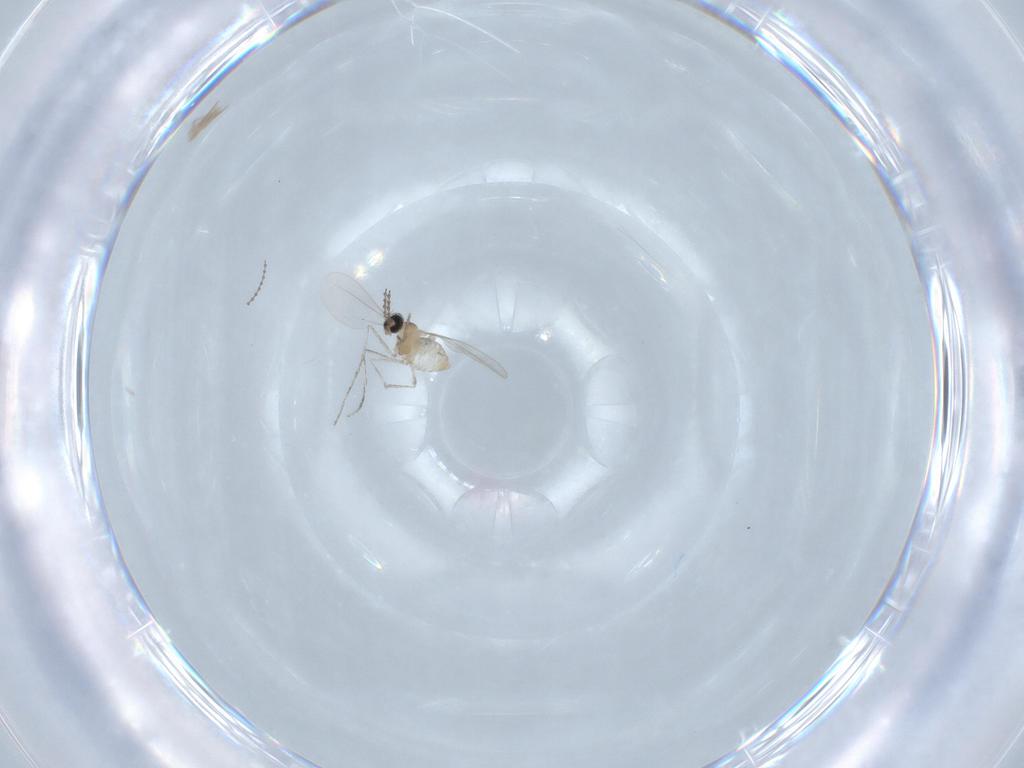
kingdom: Animalia
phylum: Arthropoda
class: Insecta
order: Diptera
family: Cecidomyiidae
